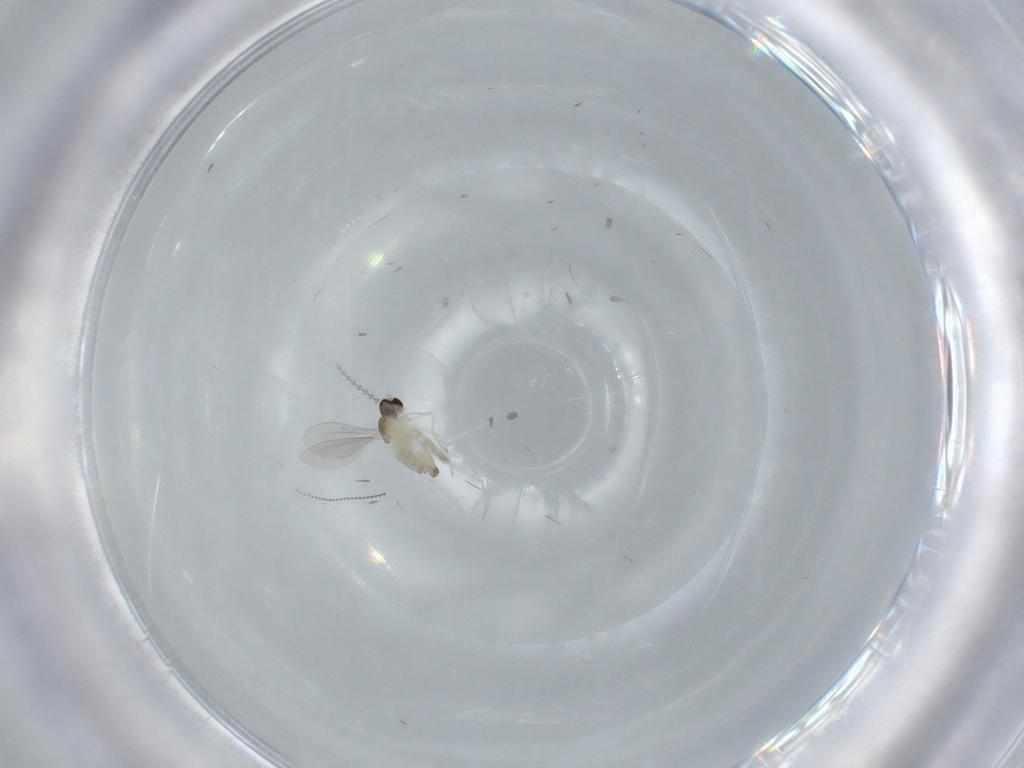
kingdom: Animalia
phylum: Arthropoda
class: Insecta
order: Diptera
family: Cecidomyiidae
